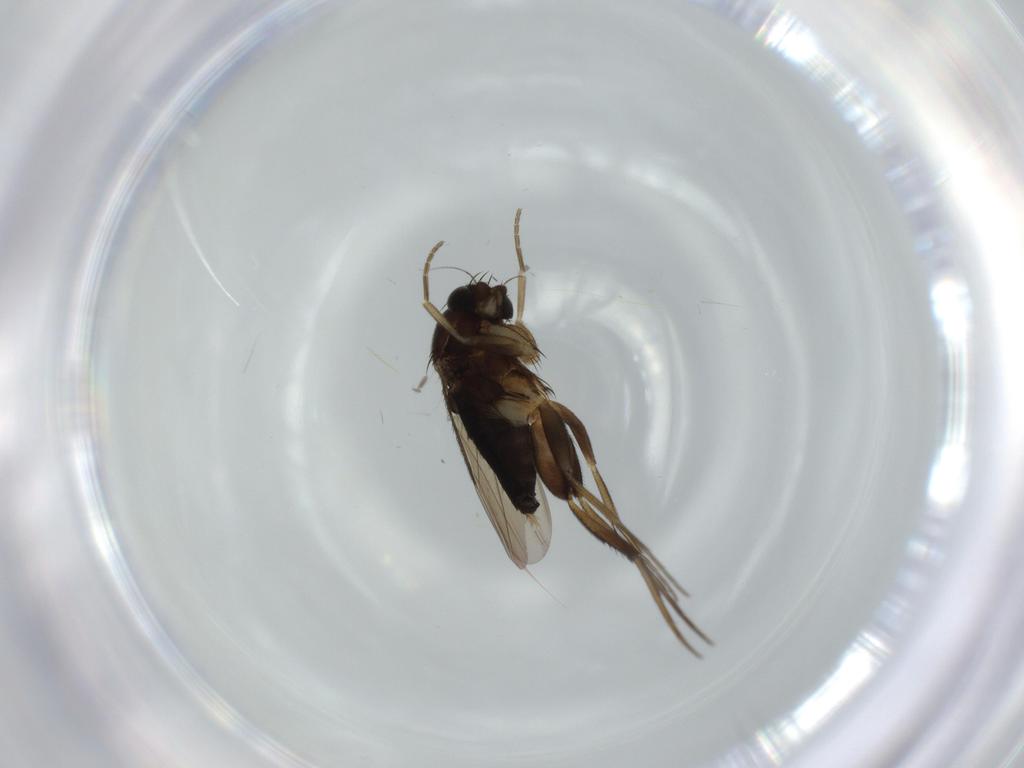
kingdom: Animalia
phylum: Arthropoda
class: Insecta
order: Diptera
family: Phoridae
